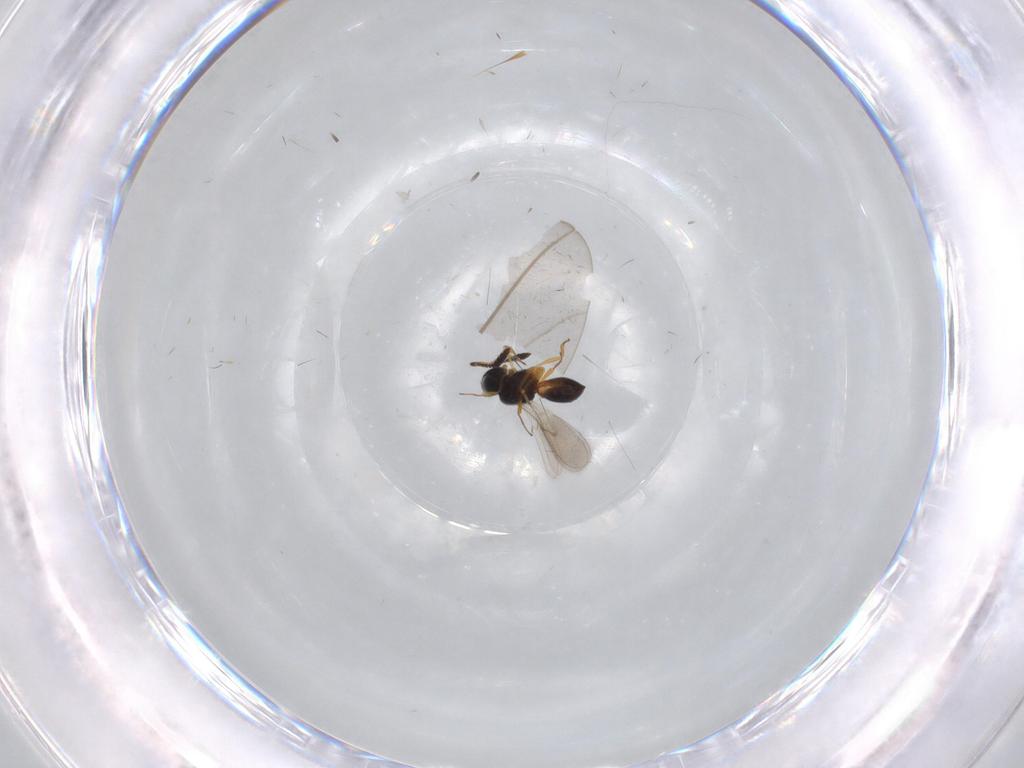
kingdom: Animalia
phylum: Arthropoda
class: Insecta
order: Hymenoptera
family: Scelionidae
